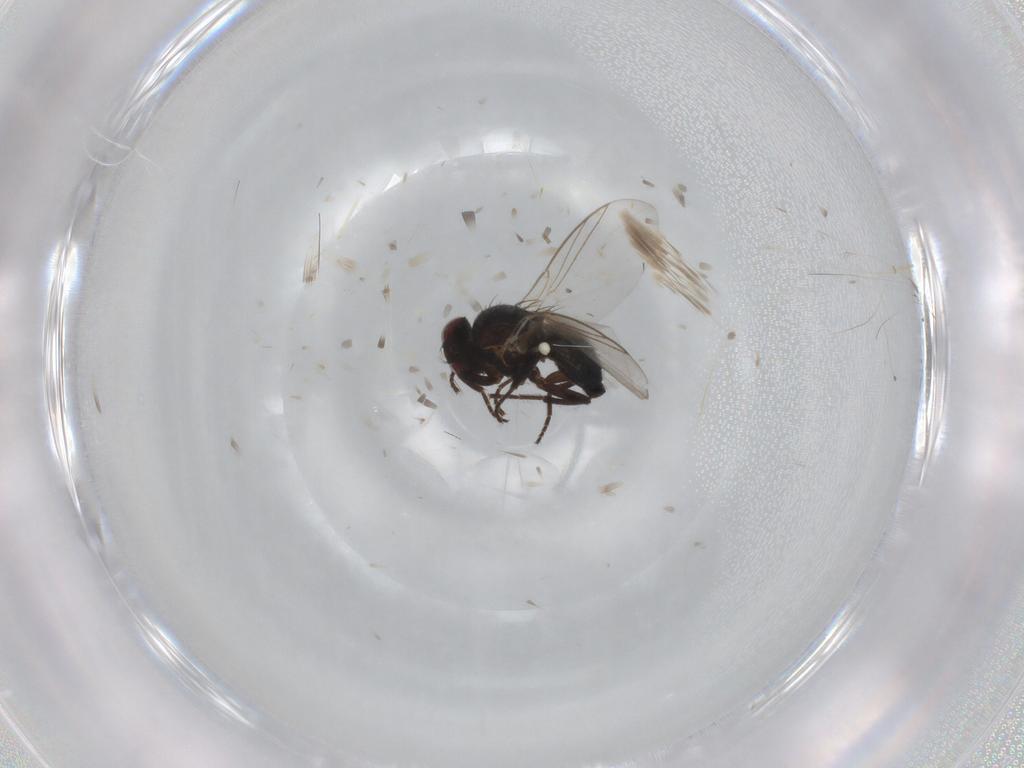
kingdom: Animalia
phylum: Arthropoda
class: Insecta
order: Diptera
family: Agromyzidae
